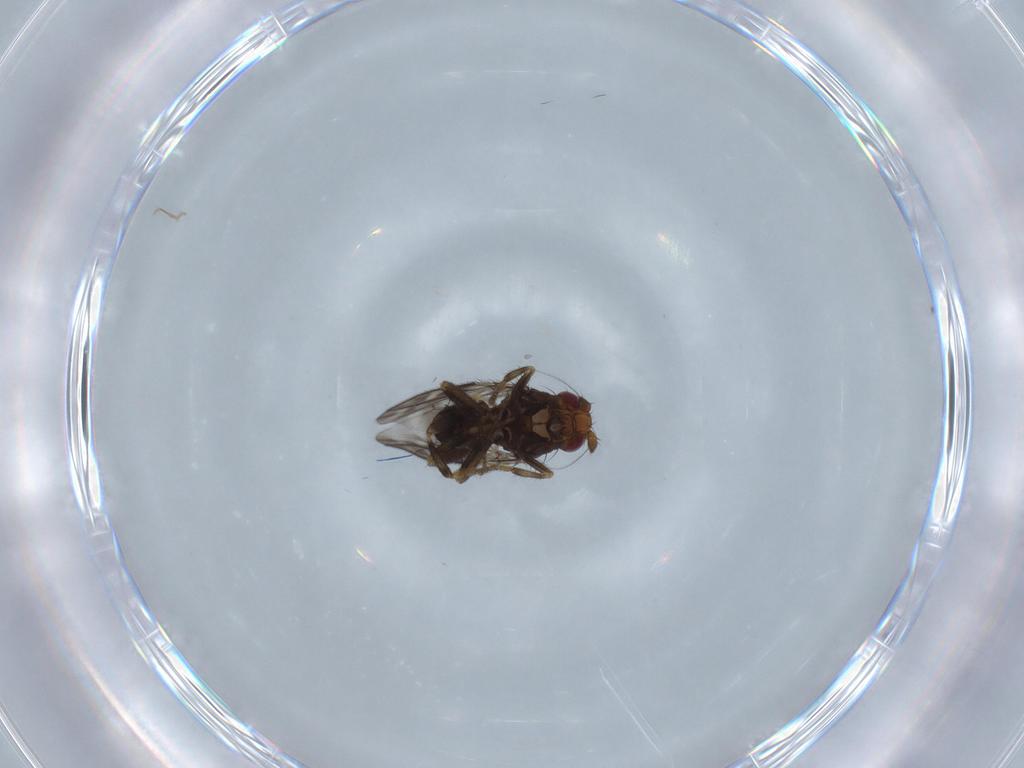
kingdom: Animalia
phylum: Arthropoda
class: Insecta
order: Diptera
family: Sphaeroceridae
